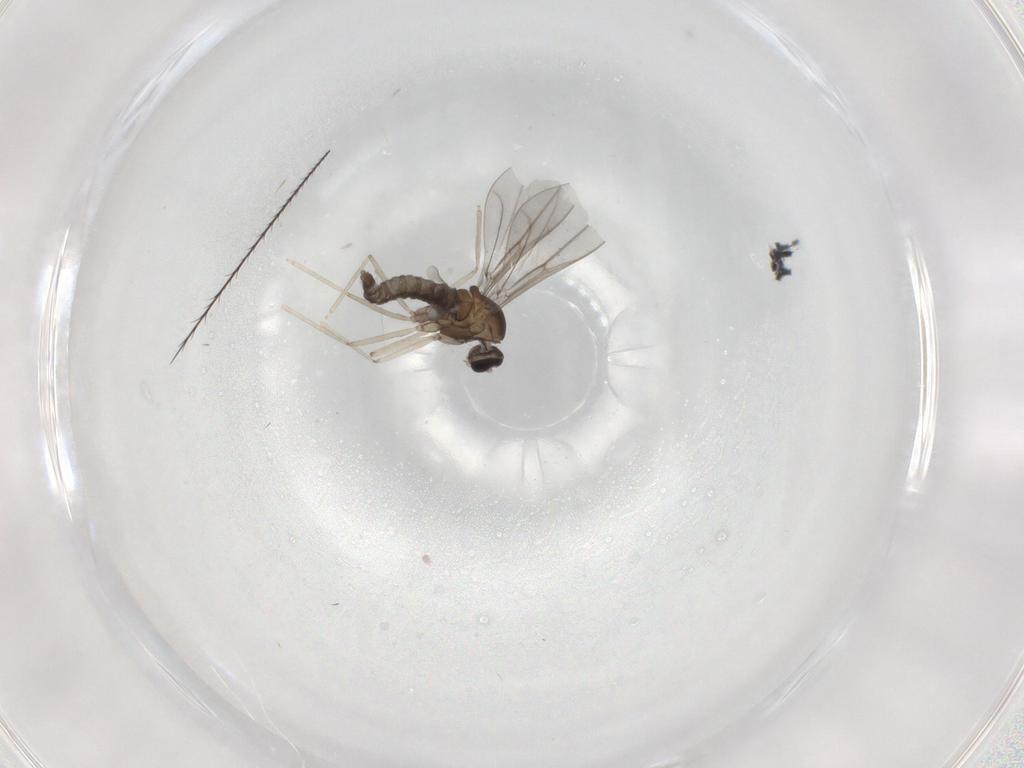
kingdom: Animalia
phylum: Arthropoda
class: Insecta
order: Diptera
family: Cecidomyiidae
